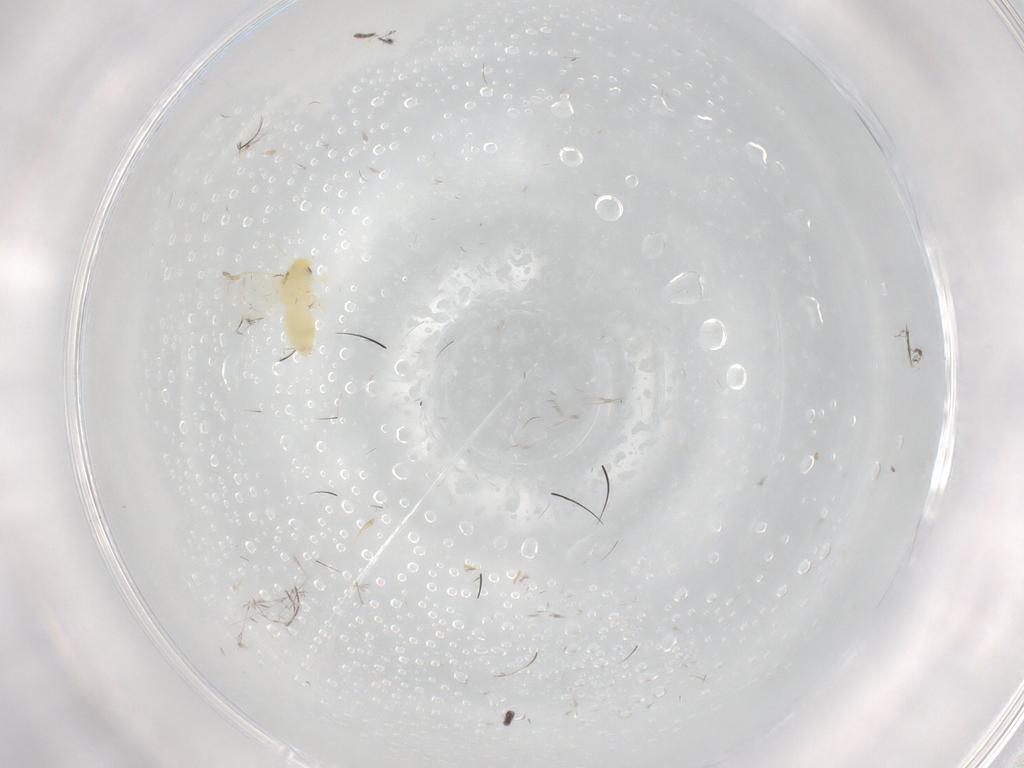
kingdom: Animalia
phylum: Arthropoda
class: Insecta
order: Hemiptera
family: Aleyrodidae
